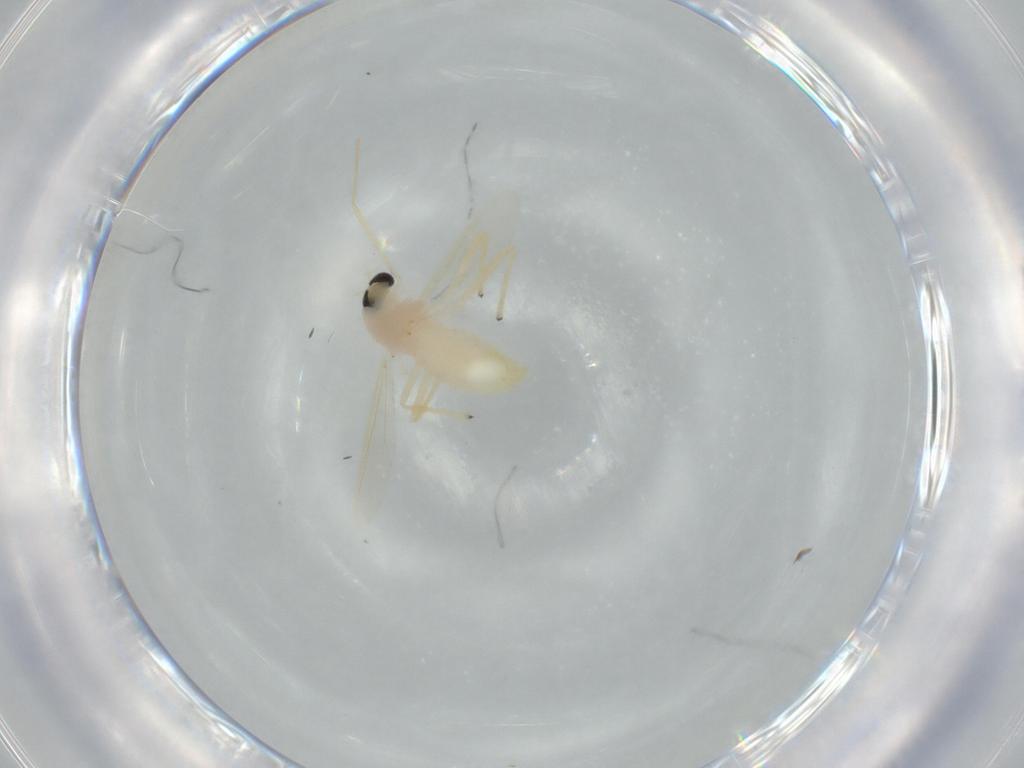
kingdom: Animalia
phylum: Arthropoda
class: Insecta
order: Diptera
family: Chironomidae
